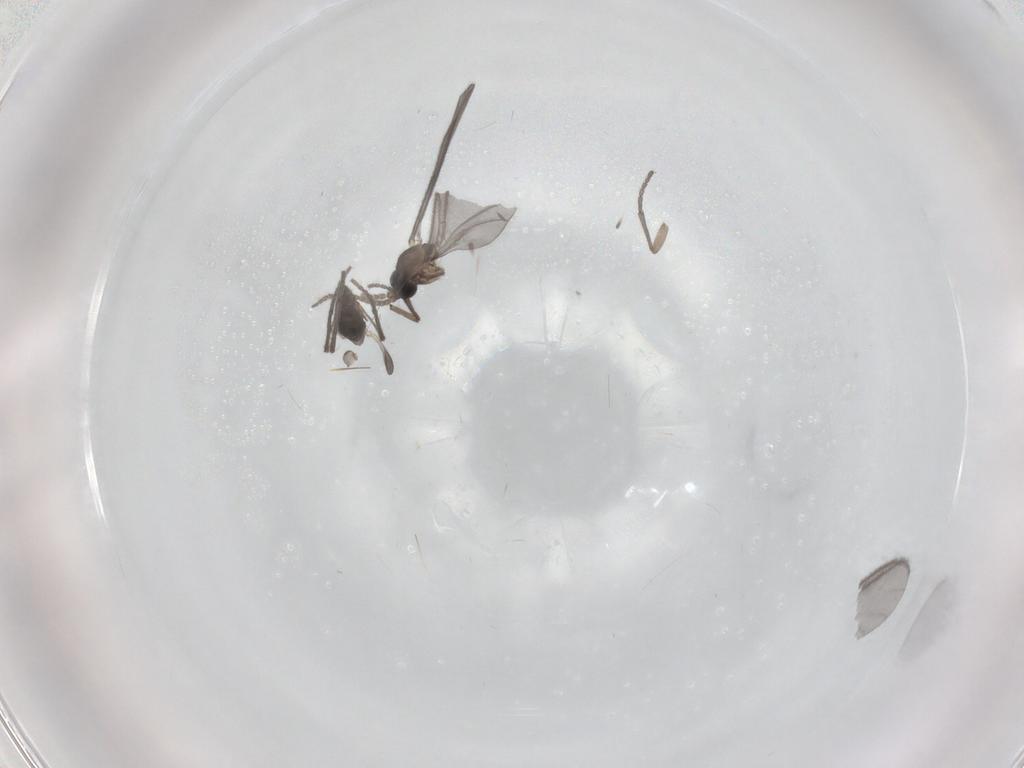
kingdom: Animalia
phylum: Arthropoda
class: Insecta
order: Diptera
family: Sciaridae
